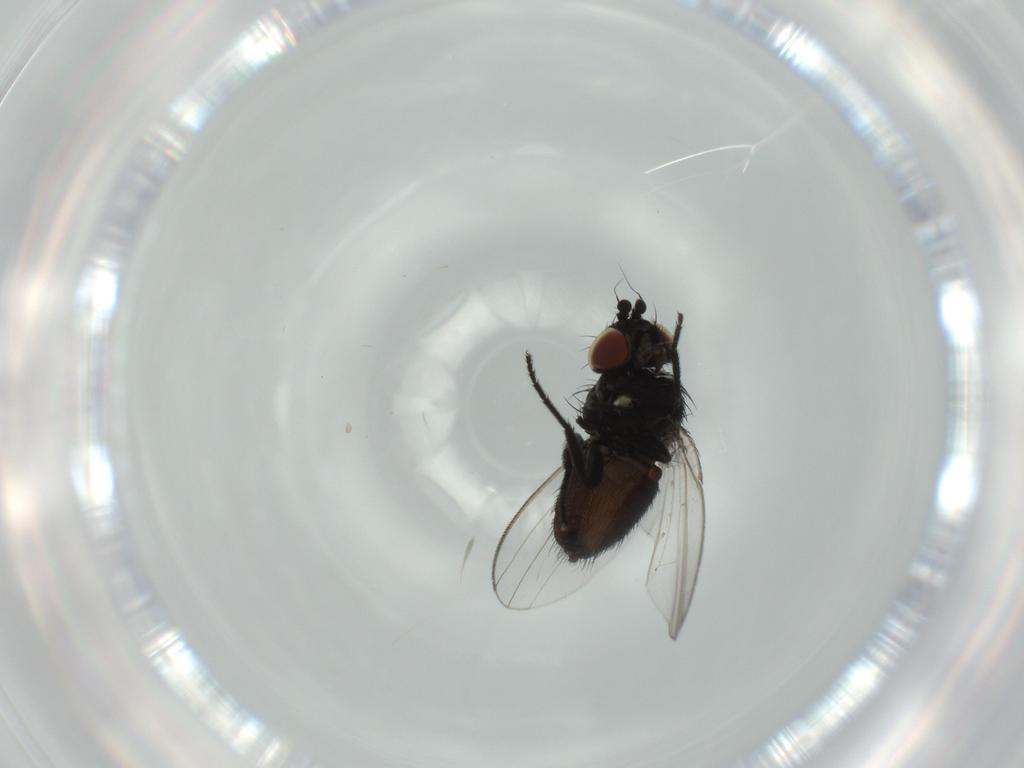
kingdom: Animalia
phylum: Arthropoda
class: Insecta
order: Diptera
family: Milichiidae
